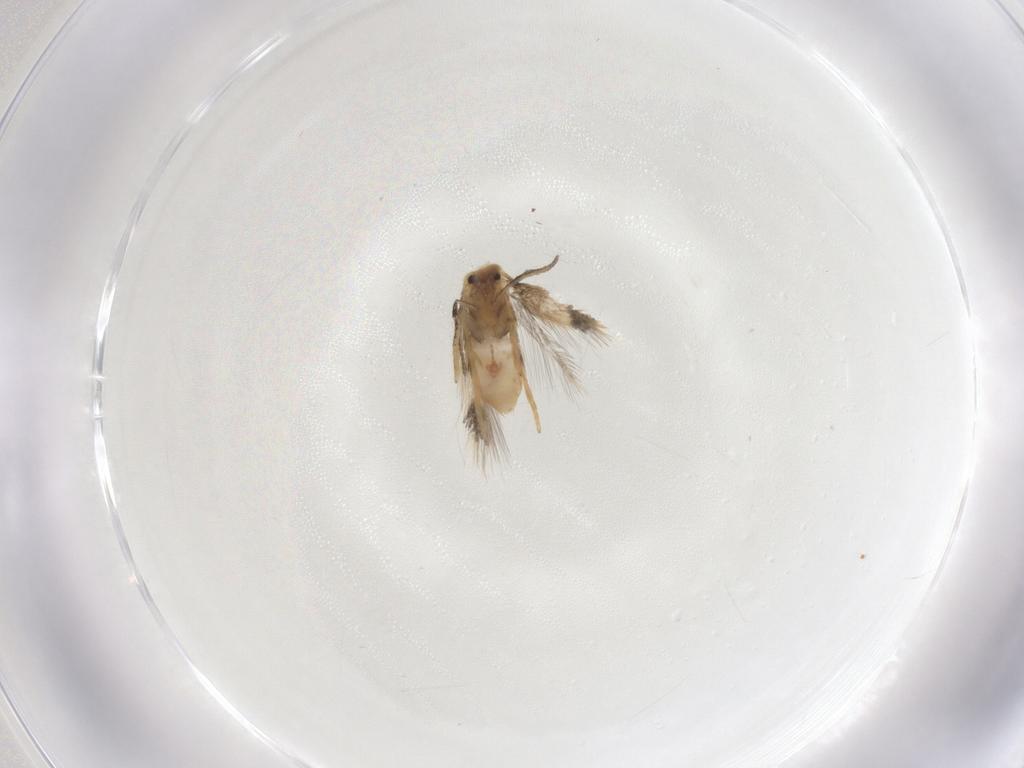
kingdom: Animalia
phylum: Arthropoda
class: Insecta
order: Lepidoptera
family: Nepticulidae
